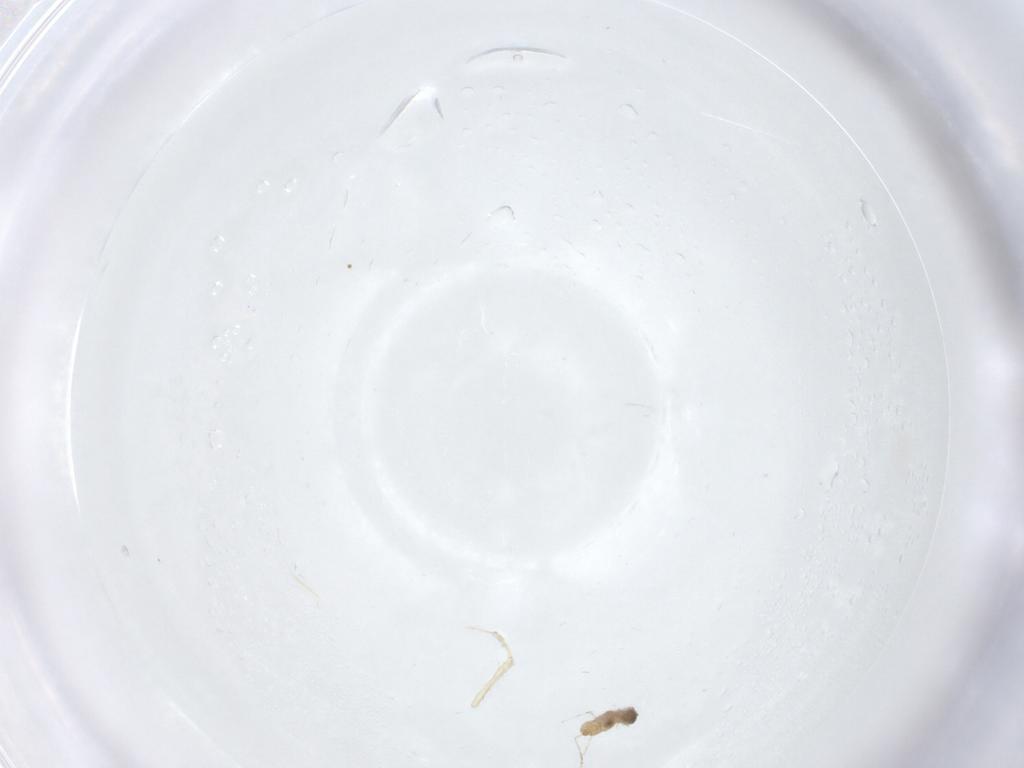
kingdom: Animalia
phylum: Arthropoda
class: Insecta
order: Diptera
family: Cecidomyiidae
